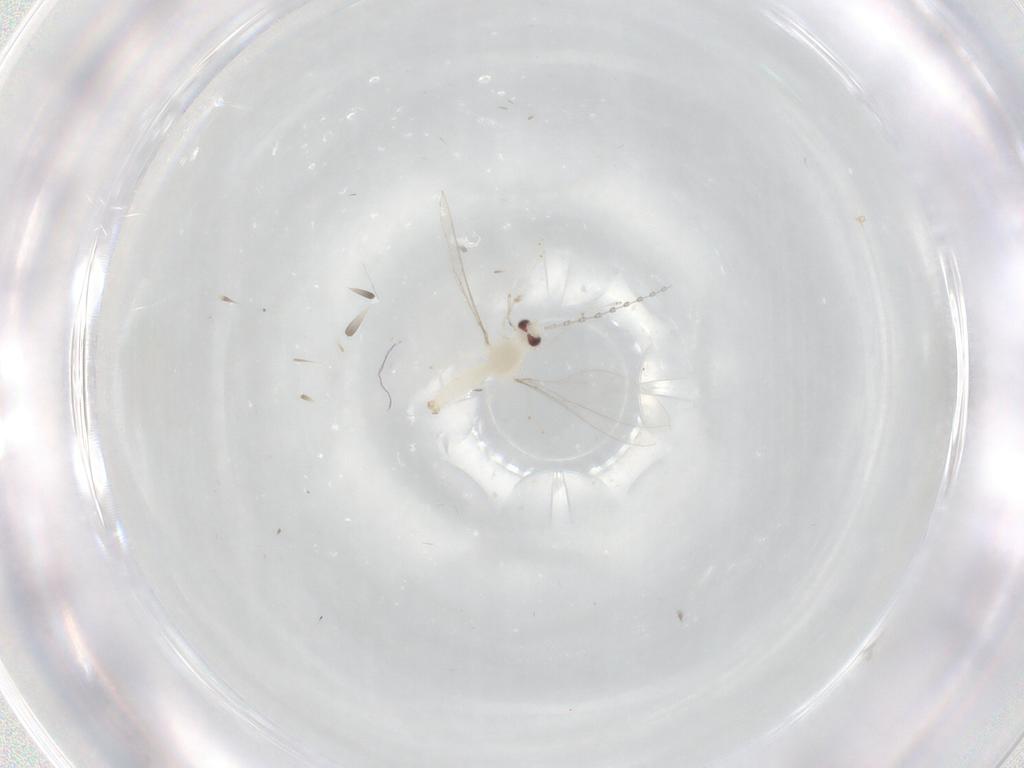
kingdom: Animalia
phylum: Arthropoda
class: Insecta
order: Diptera
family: Cecidomyiidae
